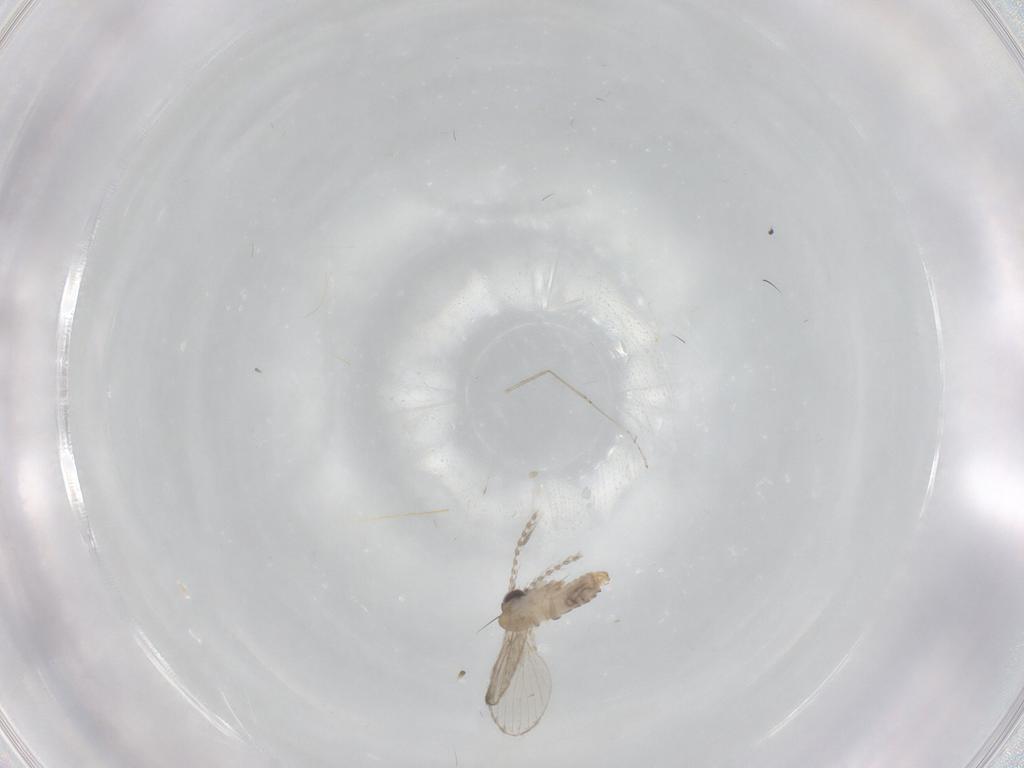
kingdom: Animalia
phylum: Arthropoda
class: Insecta
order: Diptera
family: Psychodidae
